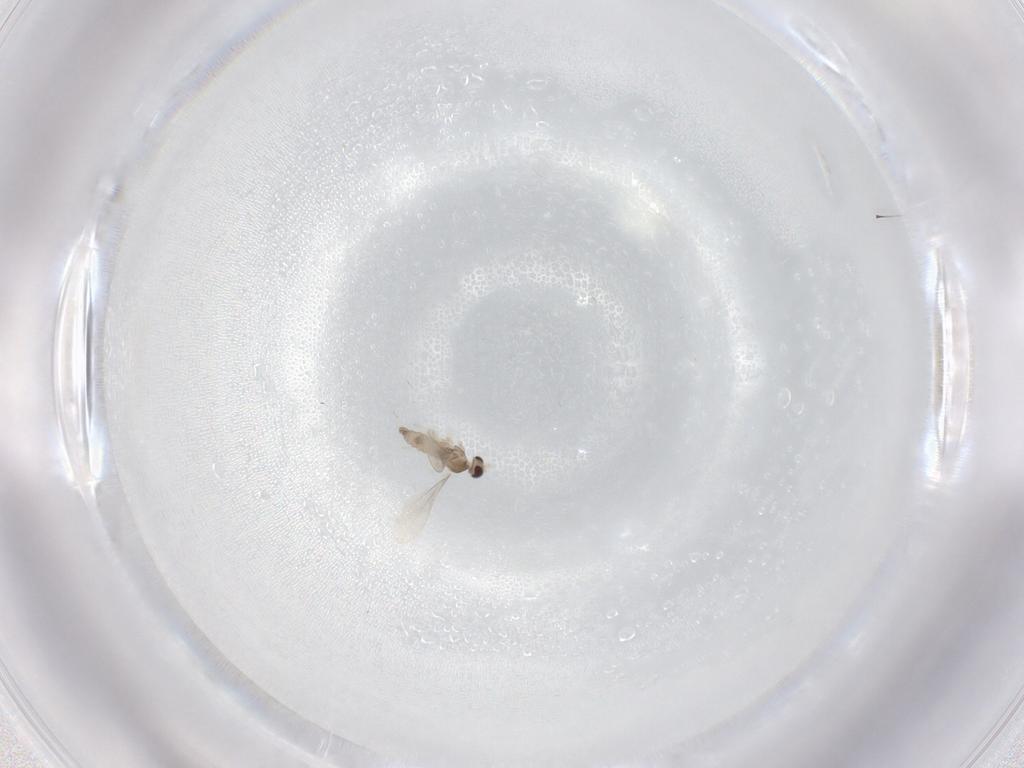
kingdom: Animalia
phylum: Arthropoda
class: Insecta
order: Diptera
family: Cecidomyiidae
